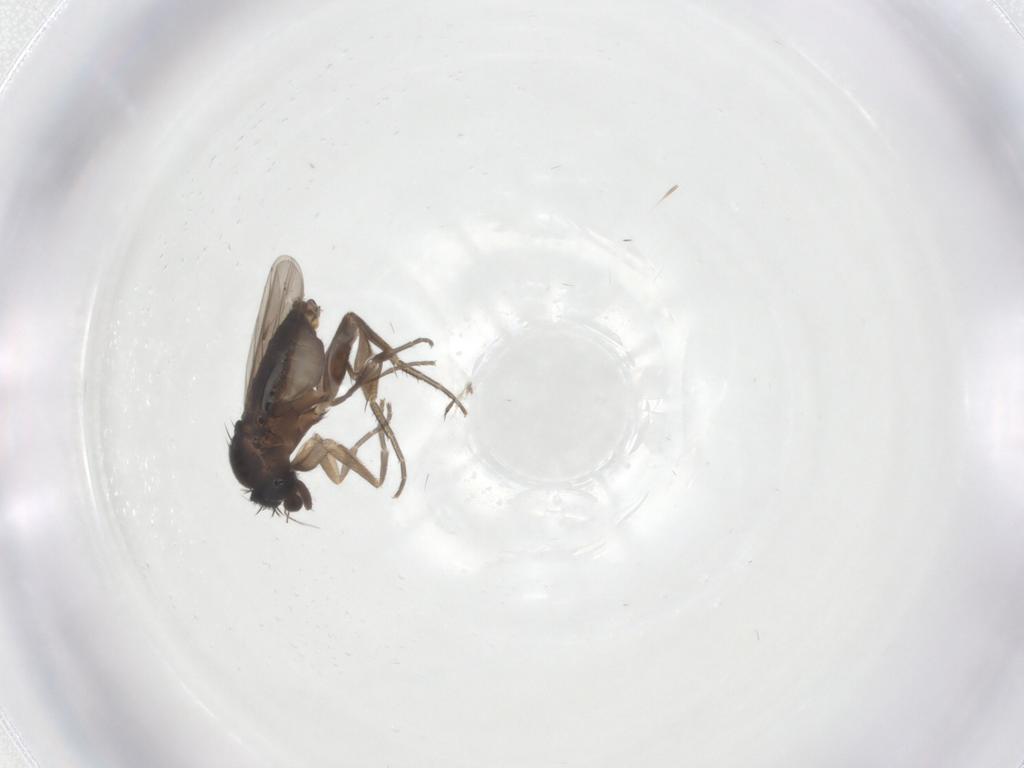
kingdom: Animalia
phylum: Arthropoda
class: Insecta
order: Diptera
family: Phoridae
